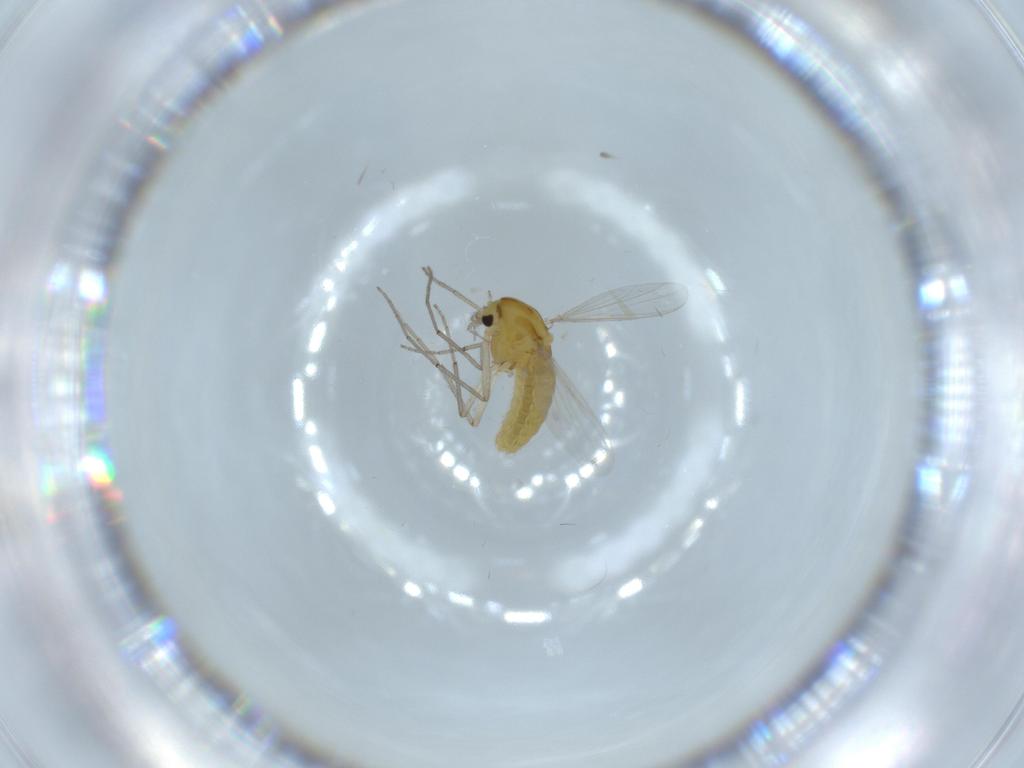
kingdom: Animalia
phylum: Arthropoda
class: Insecta
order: Diptera
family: Chironomidae
